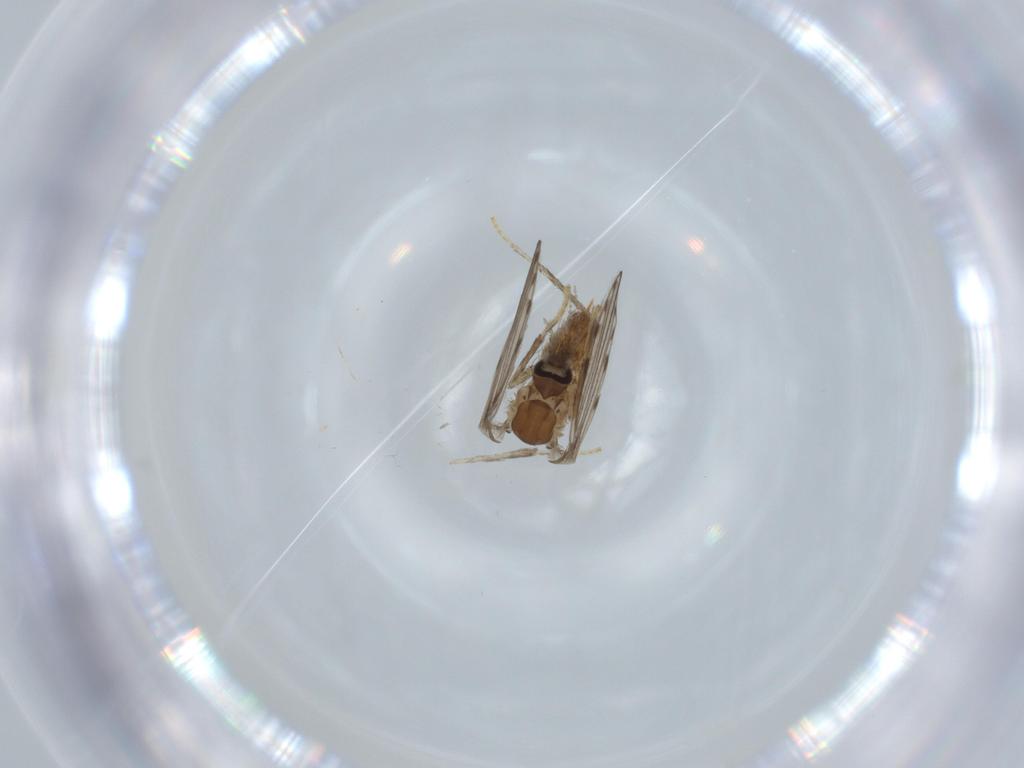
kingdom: Animalia
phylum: Arthropoda
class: Insecta
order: Diptera
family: Psychodidae
